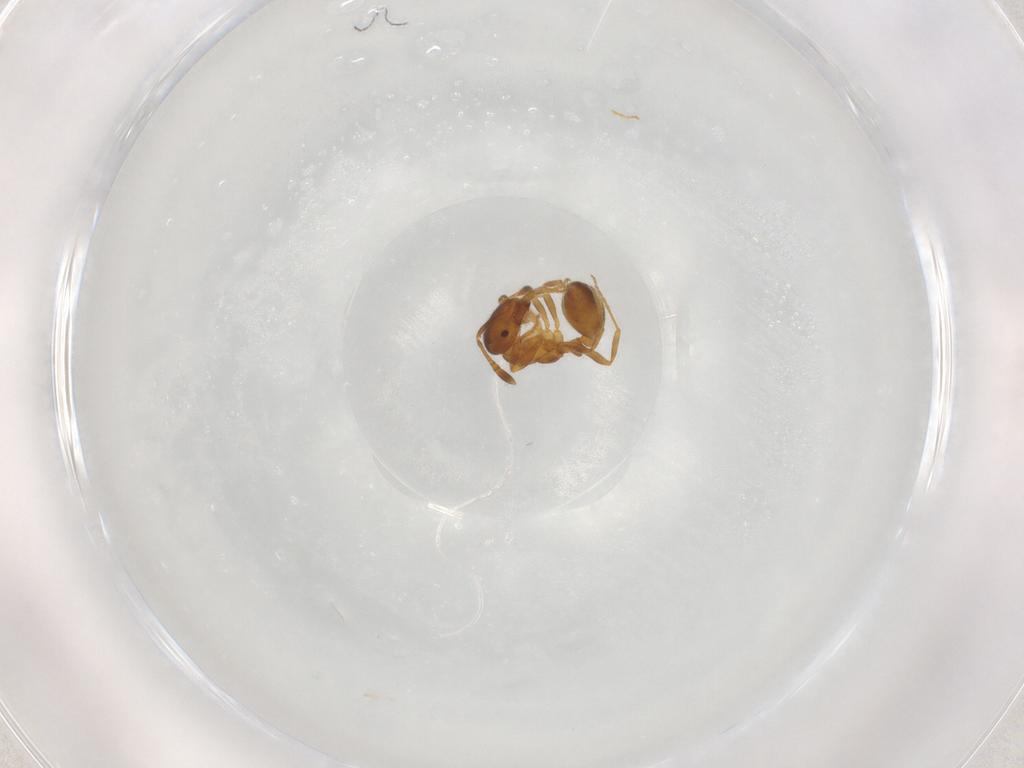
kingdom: Animalia
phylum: Arthropoda
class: Insecta
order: Hymenoptera
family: Formicidae
